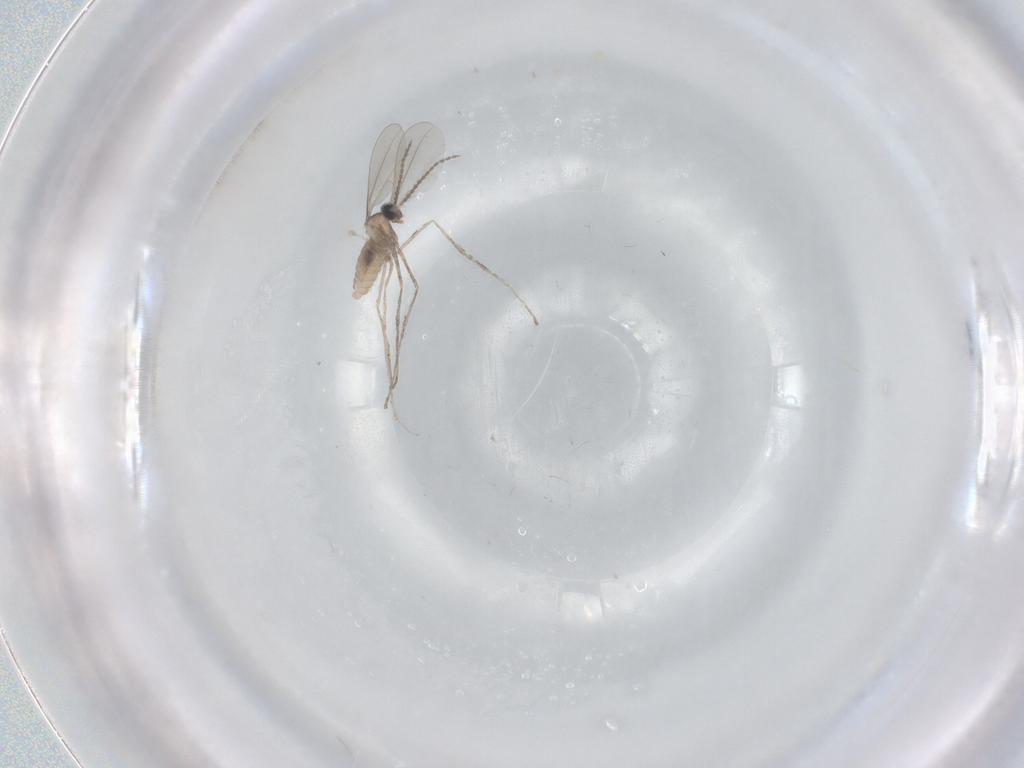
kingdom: Animalia
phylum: Arthropoda
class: Insecta
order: Diptera
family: Cecidomyiidae
